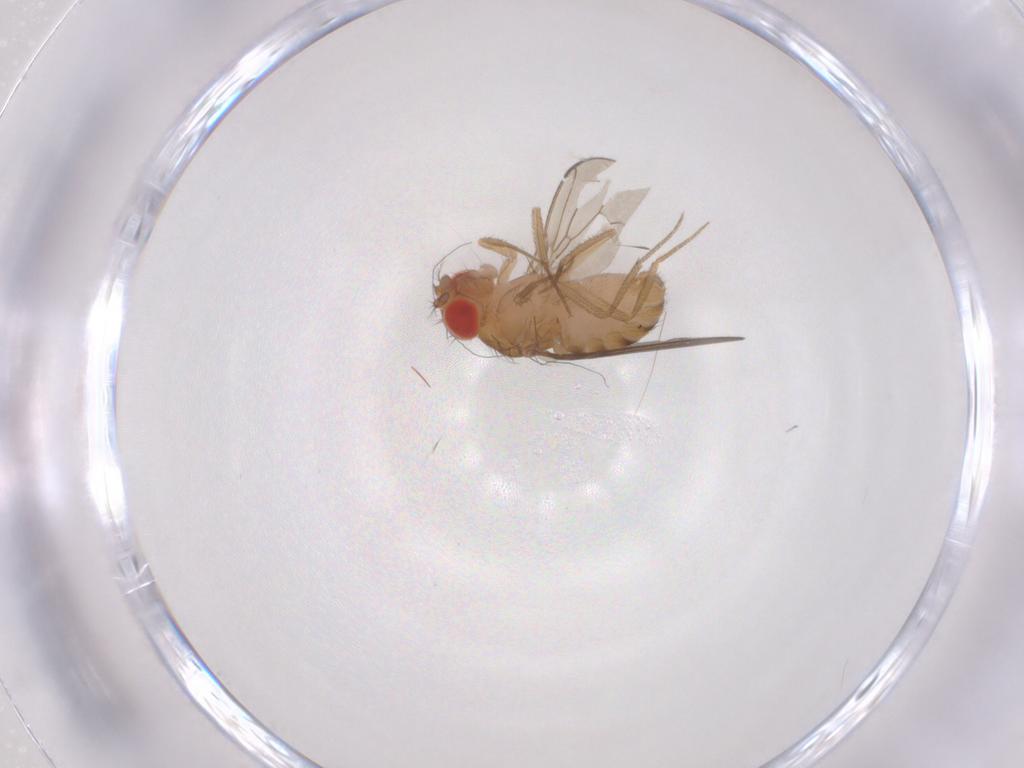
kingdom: Animalia
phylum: Arthropoda
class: Insecta
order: Diptera
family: Drosophilidae
